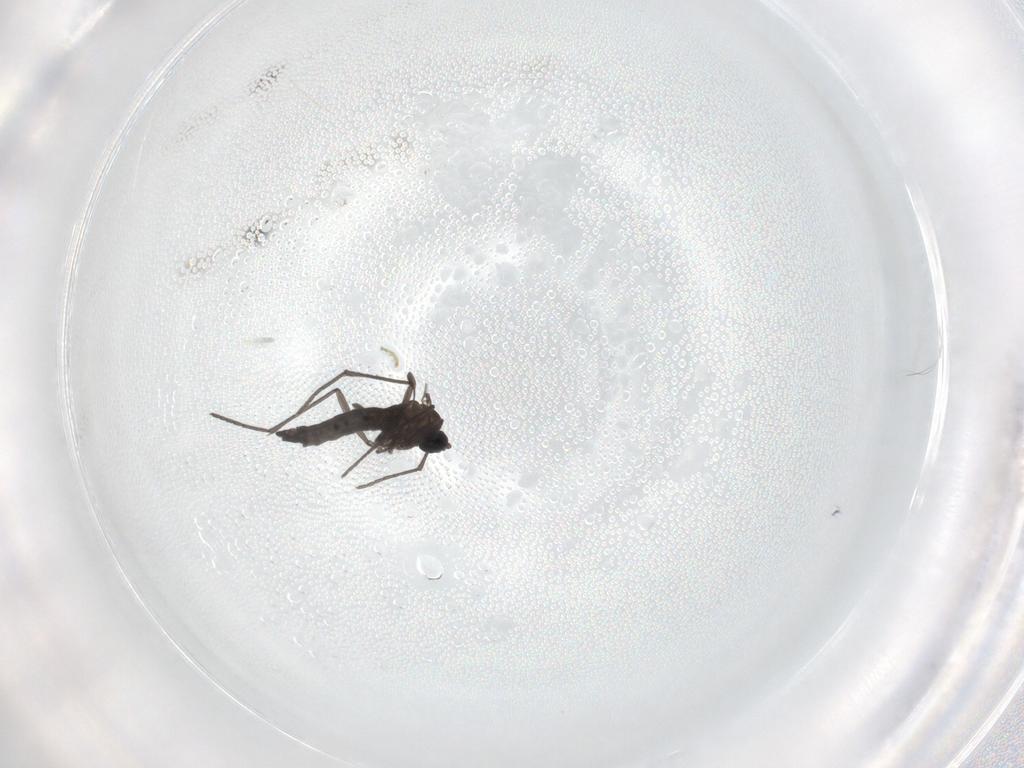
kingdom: Animalia
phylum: Arthropoda
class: Insecta
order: Diptera
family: Sciaridae
